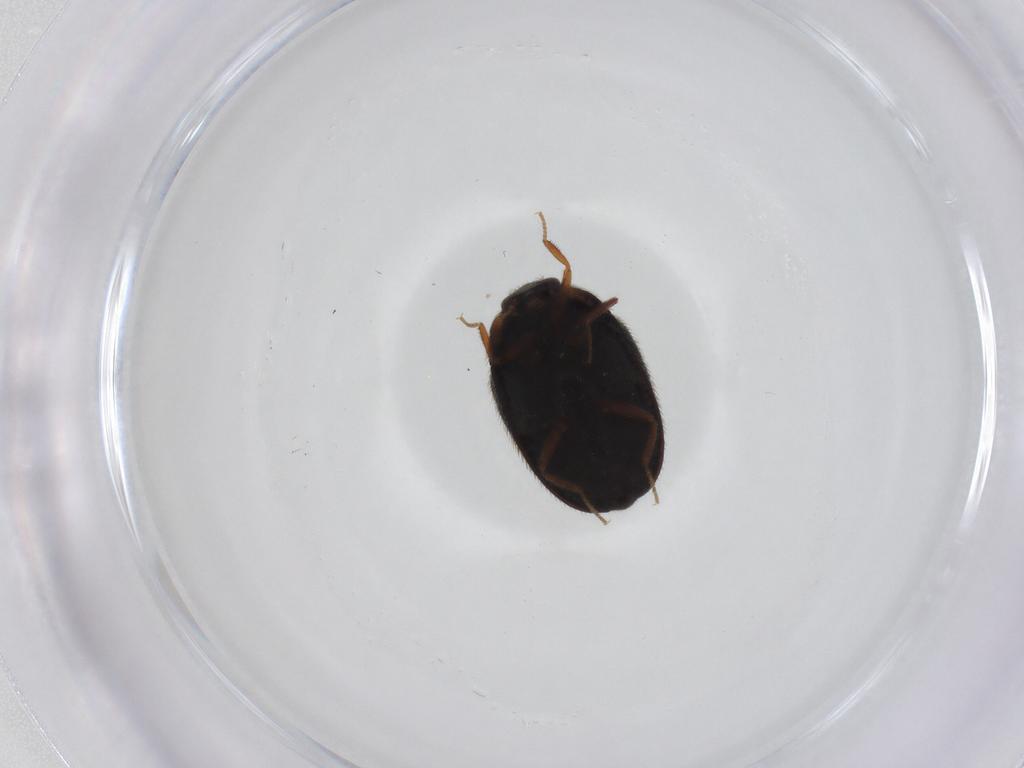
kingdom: Animalia
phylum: Arthropoda
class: Insecta
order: Coleoptera
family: Dermestidae
